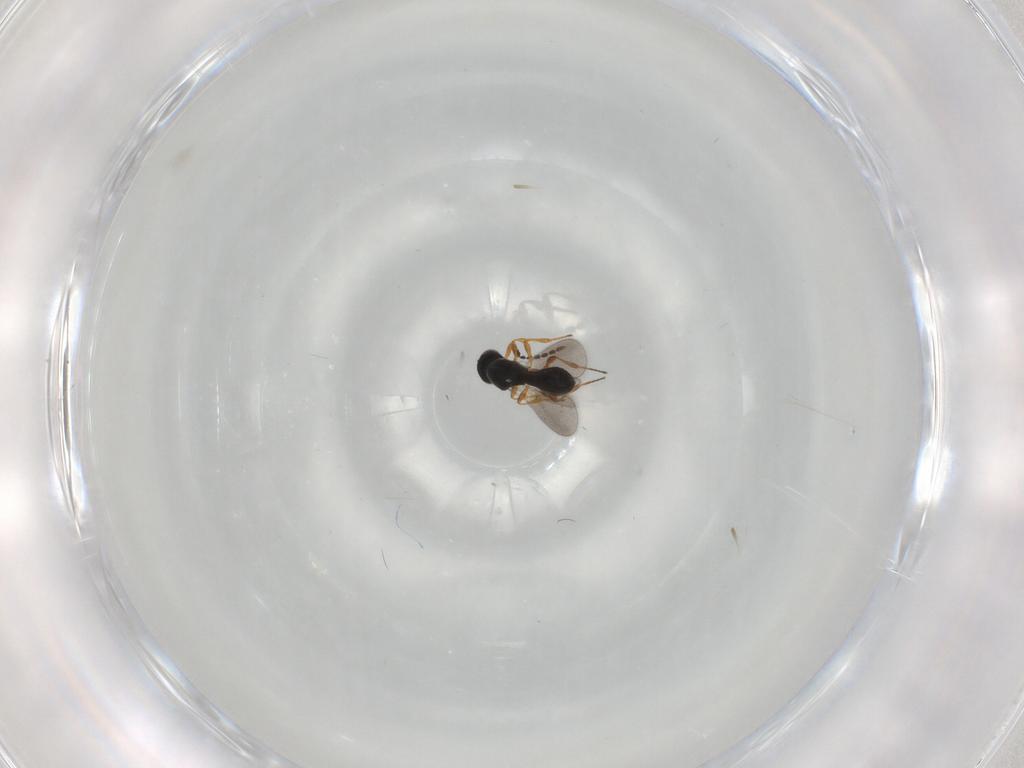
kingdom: Animalia
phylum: Arthropoda
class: Insecta
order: Hymenoptera
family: Platygastridae
